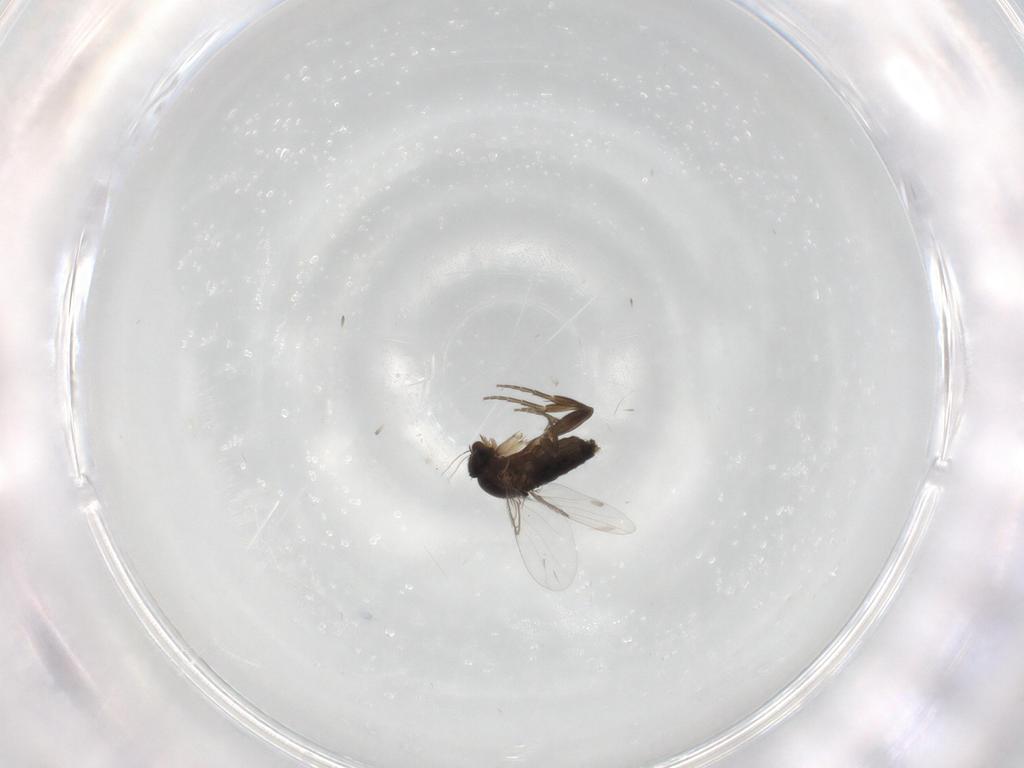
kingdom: Animalia
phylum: Arthropoda
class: Insecta
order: Diptera
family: Phoridae
